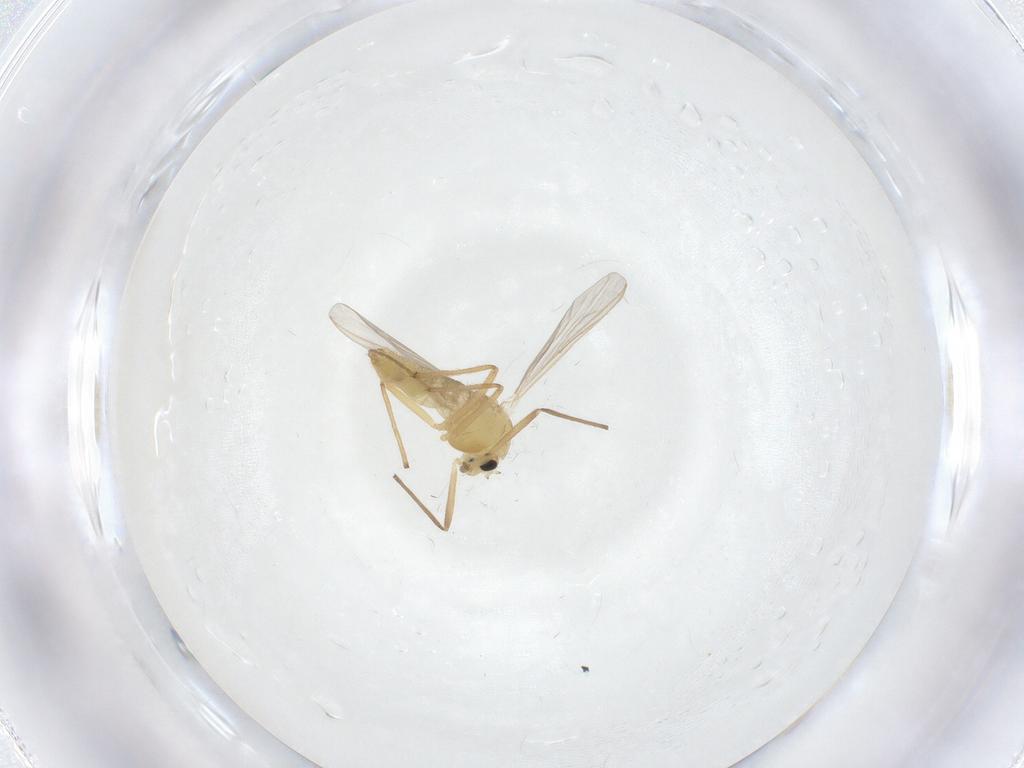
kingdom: Animalia
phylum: Arthropoda
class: Insecta
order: Diptera
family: Chironomidae
